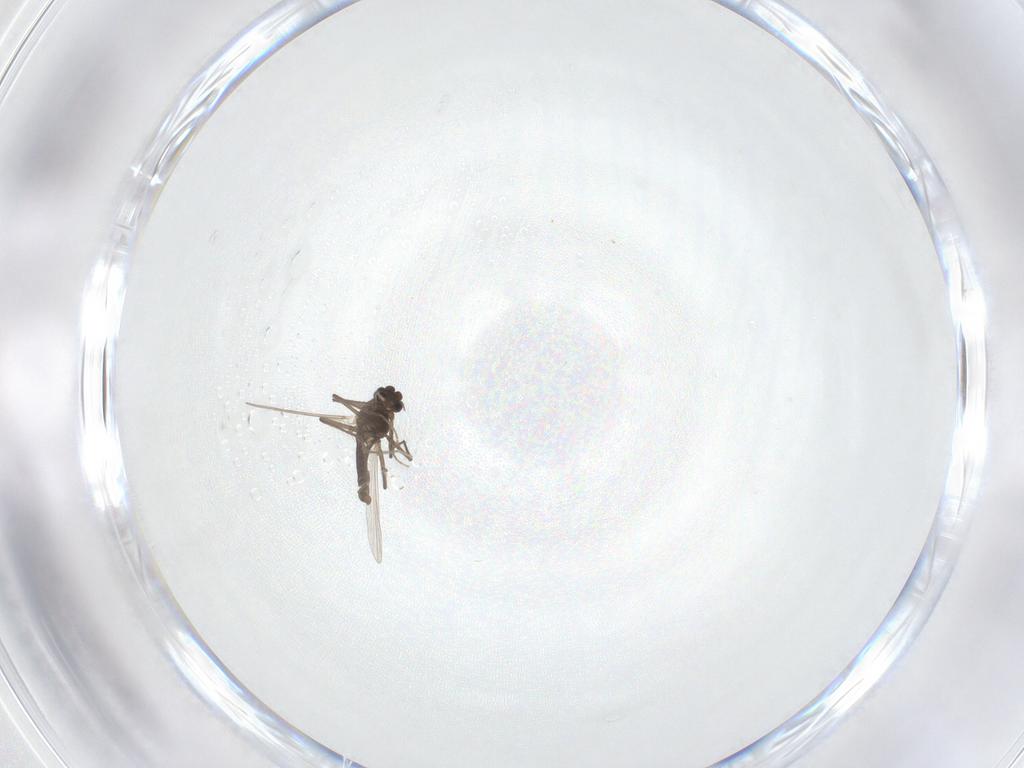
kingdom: Animalia
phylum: Arthropoda
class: Insecta
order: Diptera
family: Chironomidae
